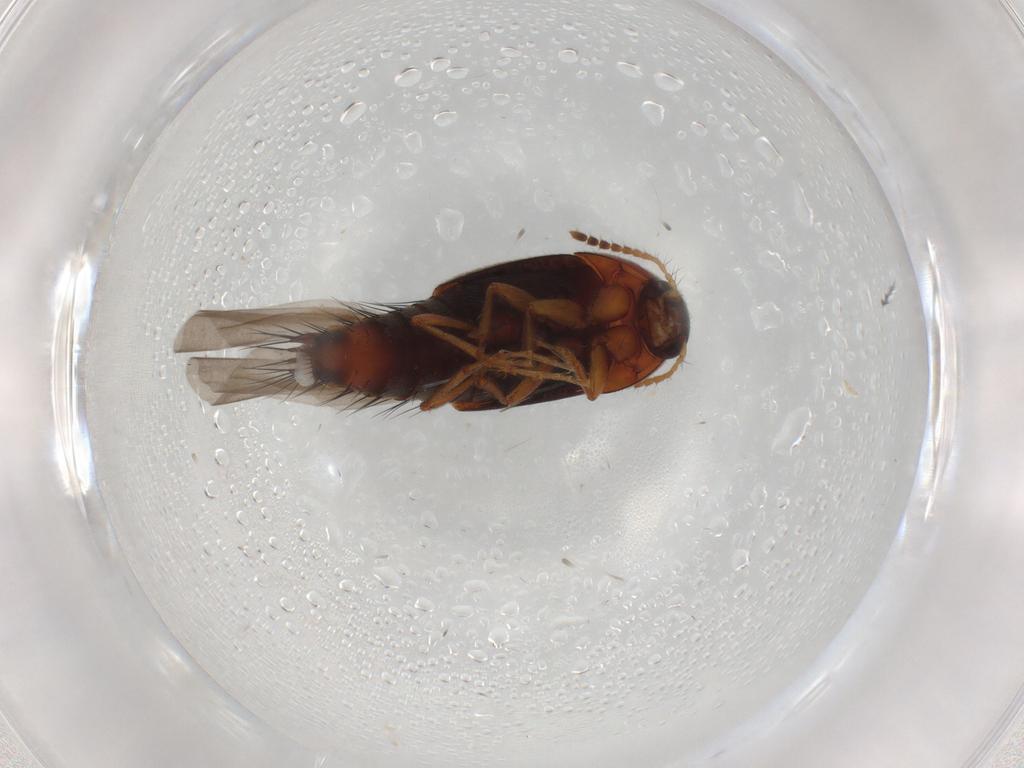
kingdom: Animalia
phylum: Arthropoda
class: Insecta
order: Coleoptera
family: Staphylinidae
